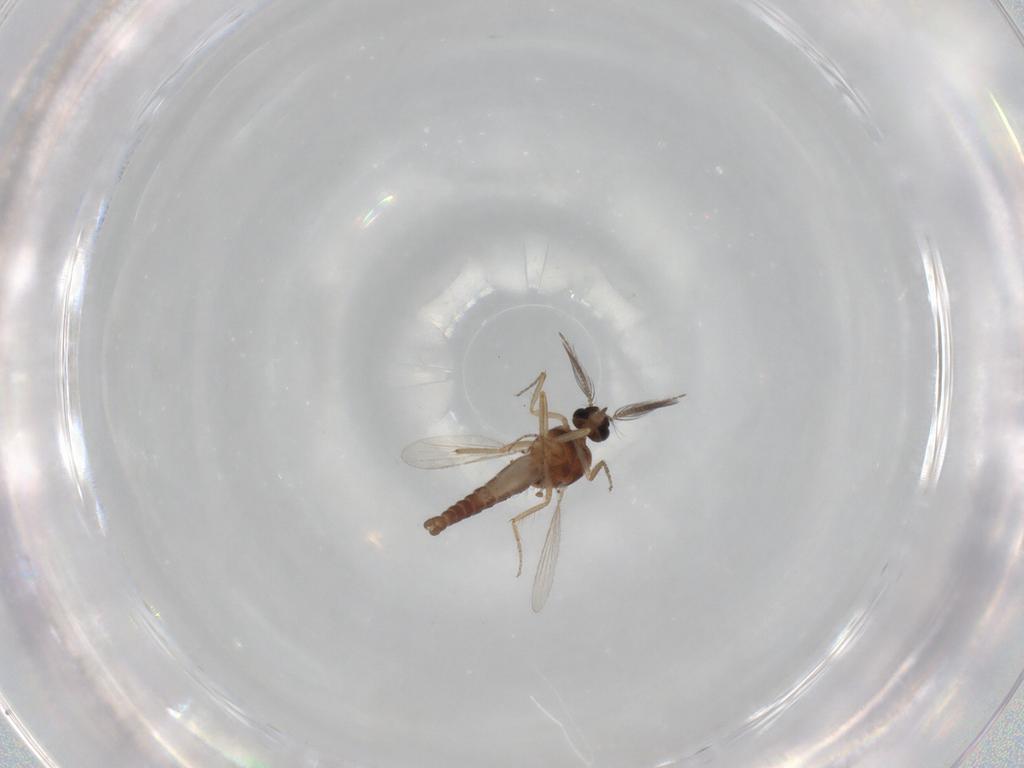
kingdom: Animalia
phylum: Arthropoda
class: Insecta
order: Diptera
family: Ceratopogonidae
